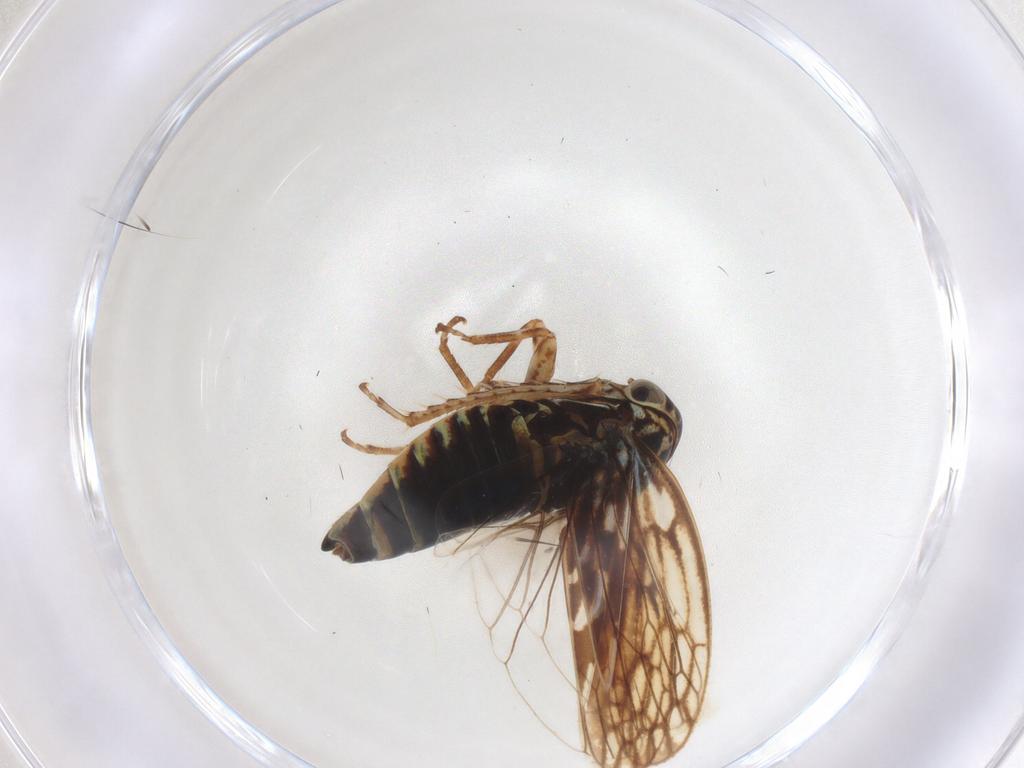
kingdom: Animalia
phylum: Arthropoda
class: Insecta
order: Hemiptera
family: Cicadellidae
